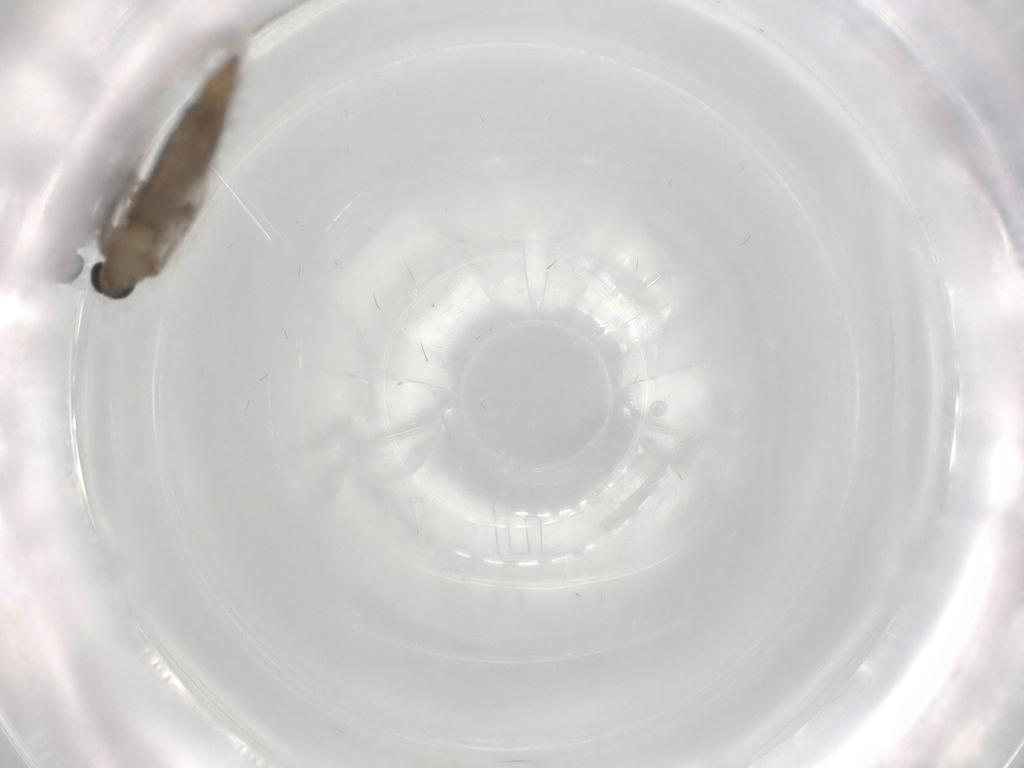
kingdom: Animalia
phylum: Arthropoda
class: Insecta
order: Diptera
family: Limoniidae
